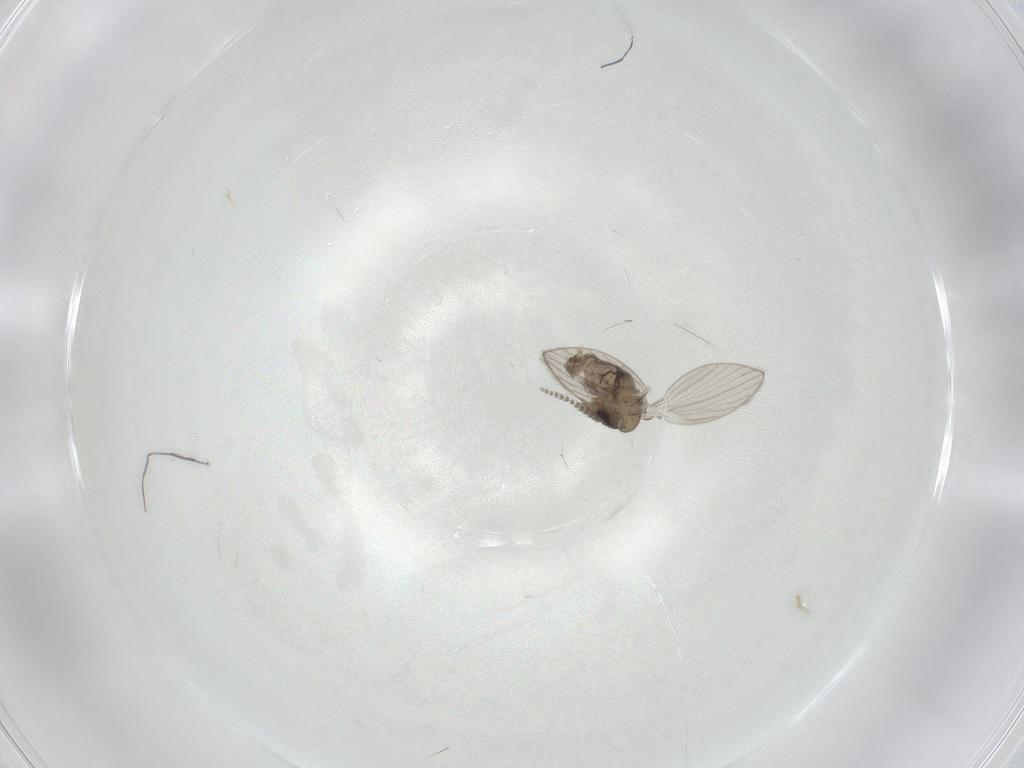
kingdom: Animalia
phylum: Arthropoda
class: Insecta
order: Diptera
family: Psychodidae
